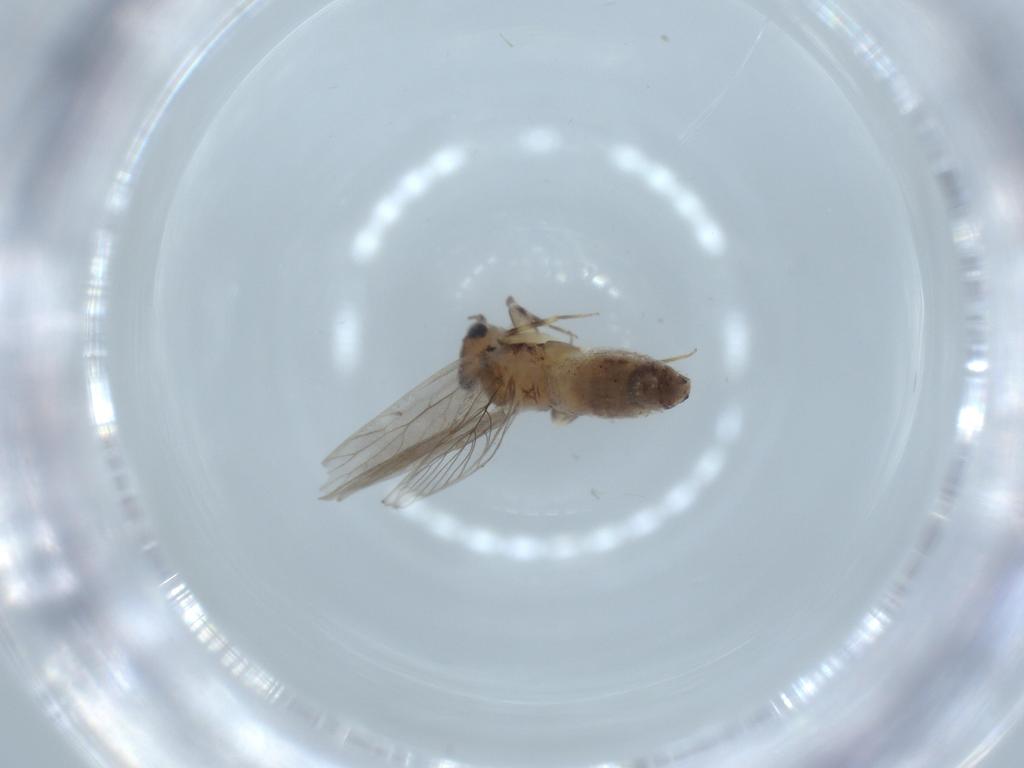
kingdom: Animalia
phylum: Arthropoda
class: Insecta
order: Psocodea
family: Lepidopsocidae
